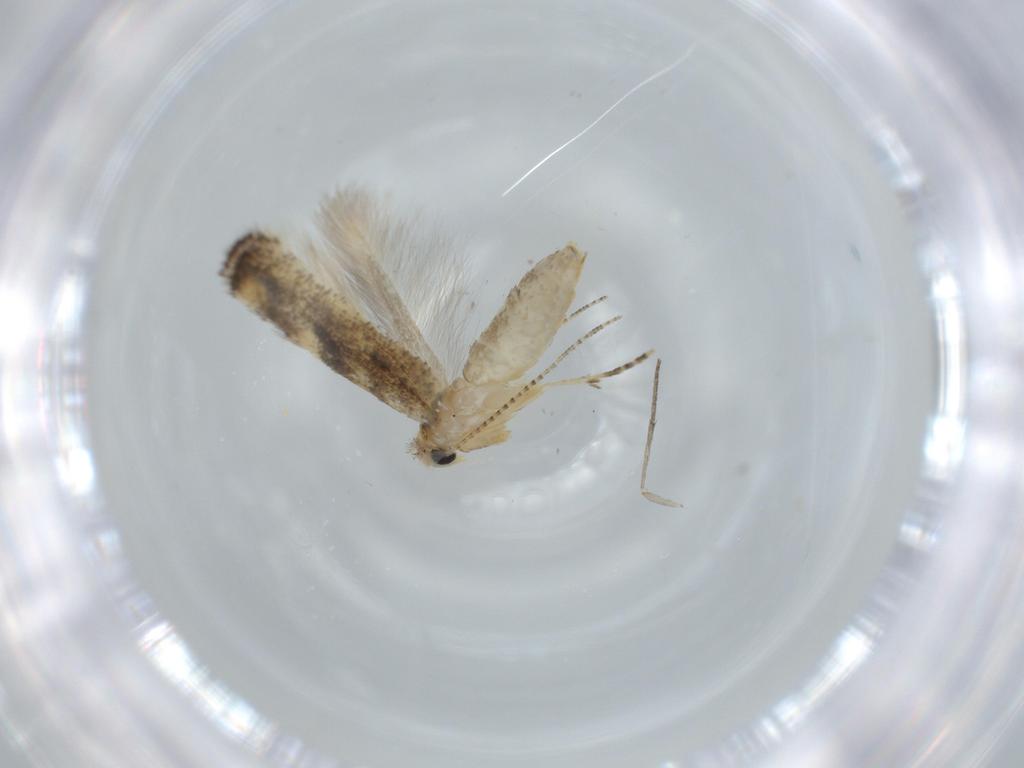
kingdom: Animalia
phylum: Arthropoda
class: Insecta
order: Lepidoptera
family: Bucculatricidae
